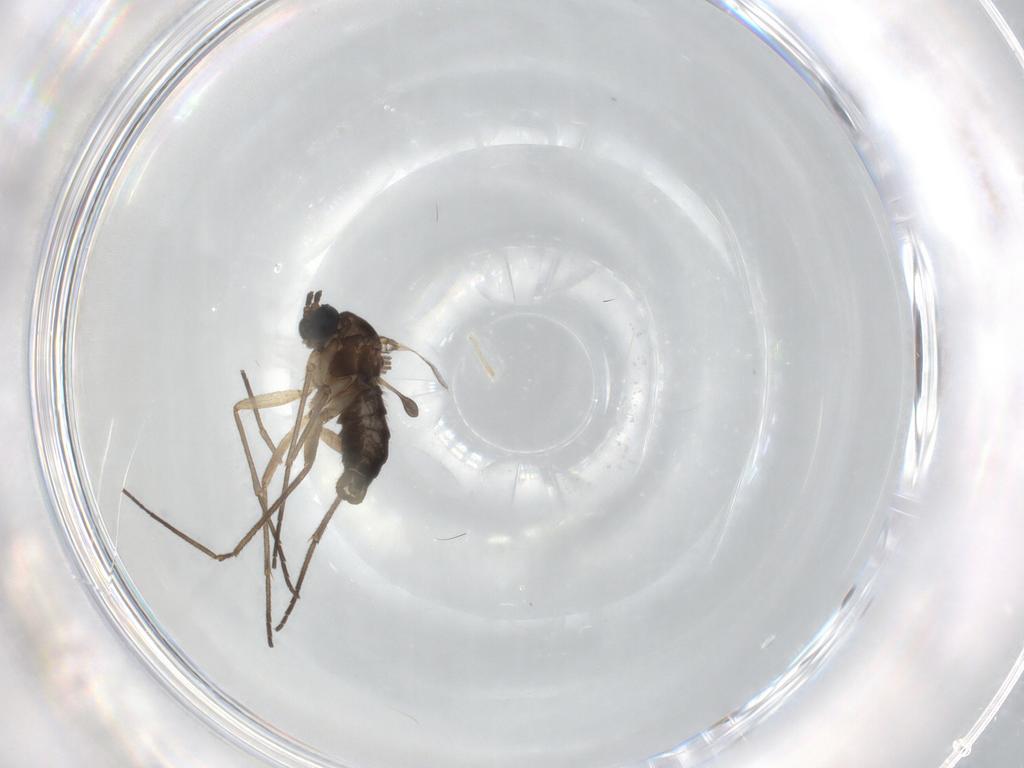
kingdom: Animalia
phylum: Arthropoda
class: Insecta
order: Diptera
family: Sciaridae
